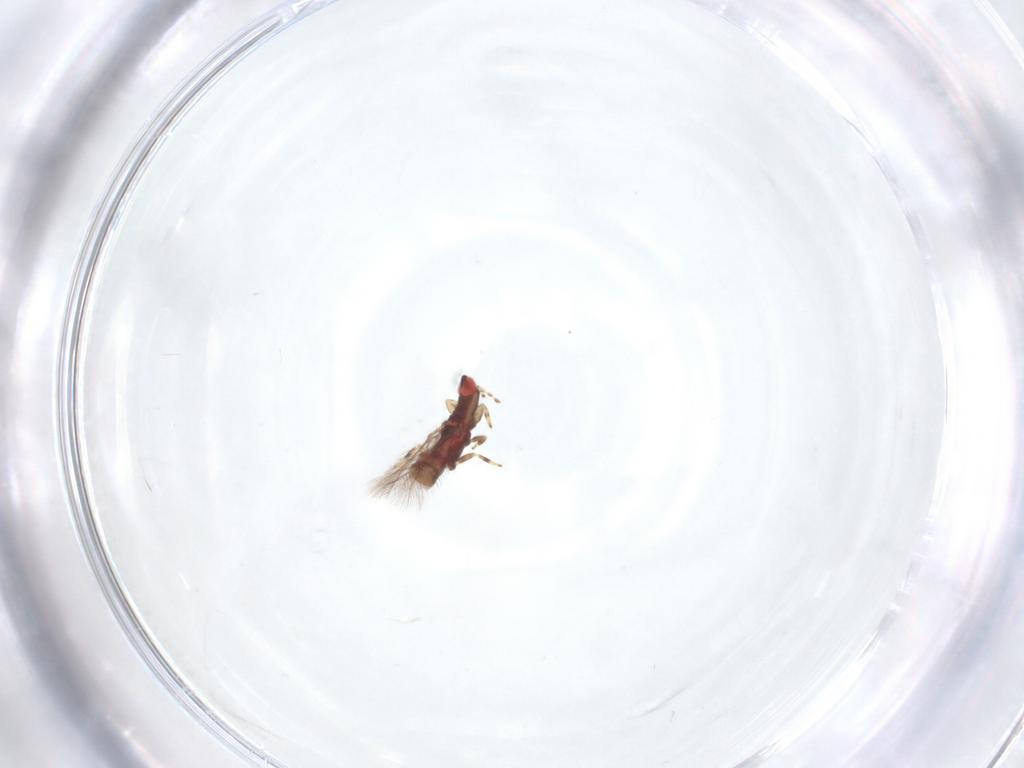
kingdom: Animalia
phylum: Arthropoda
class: Insecta
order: Thysanoptera
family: Phlaeothripidae
